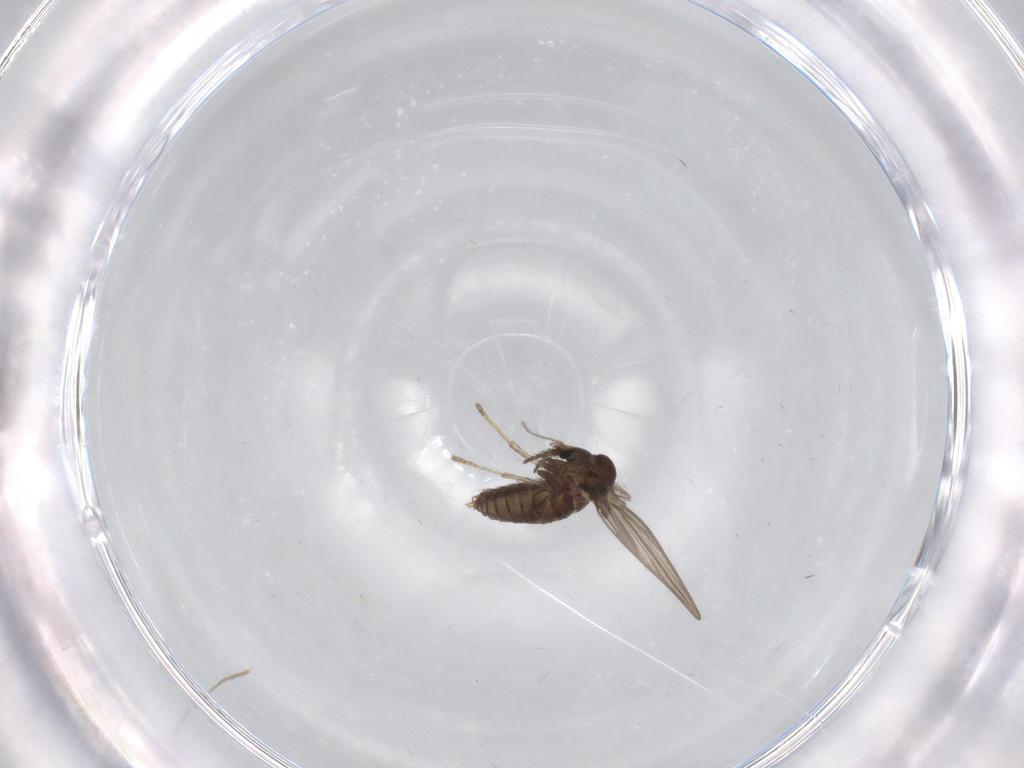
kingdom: Animalia
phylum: Arthropoda
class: Insecta
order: Diptera
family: Psychodidae
